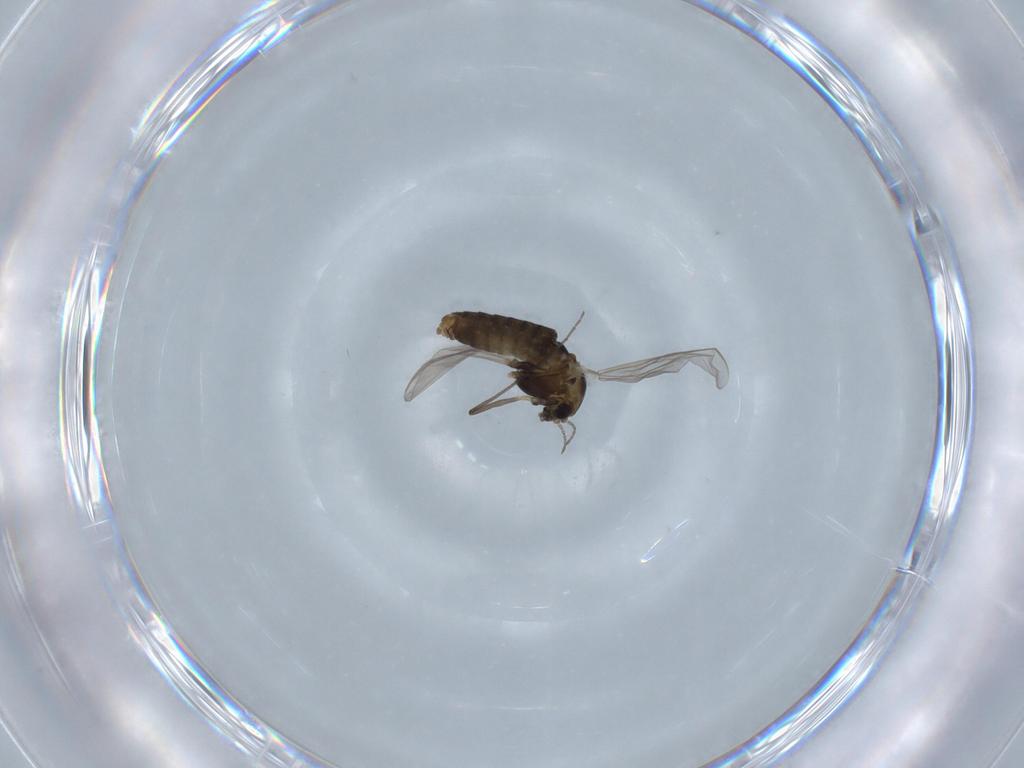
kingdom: Animalia
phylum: Arthropoda
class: Insecta
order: Diptera
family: Chironomidae
